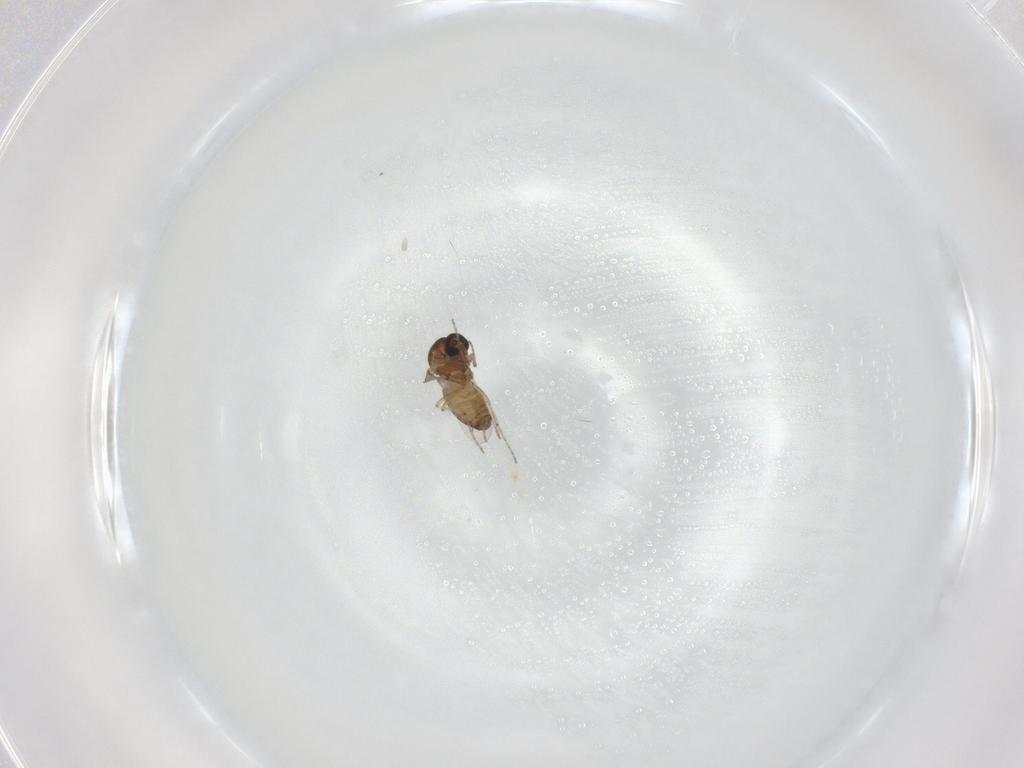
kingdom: Animalia
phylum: Arthropoda
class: Insecta
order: Diptera
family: Ceratopogonidae
